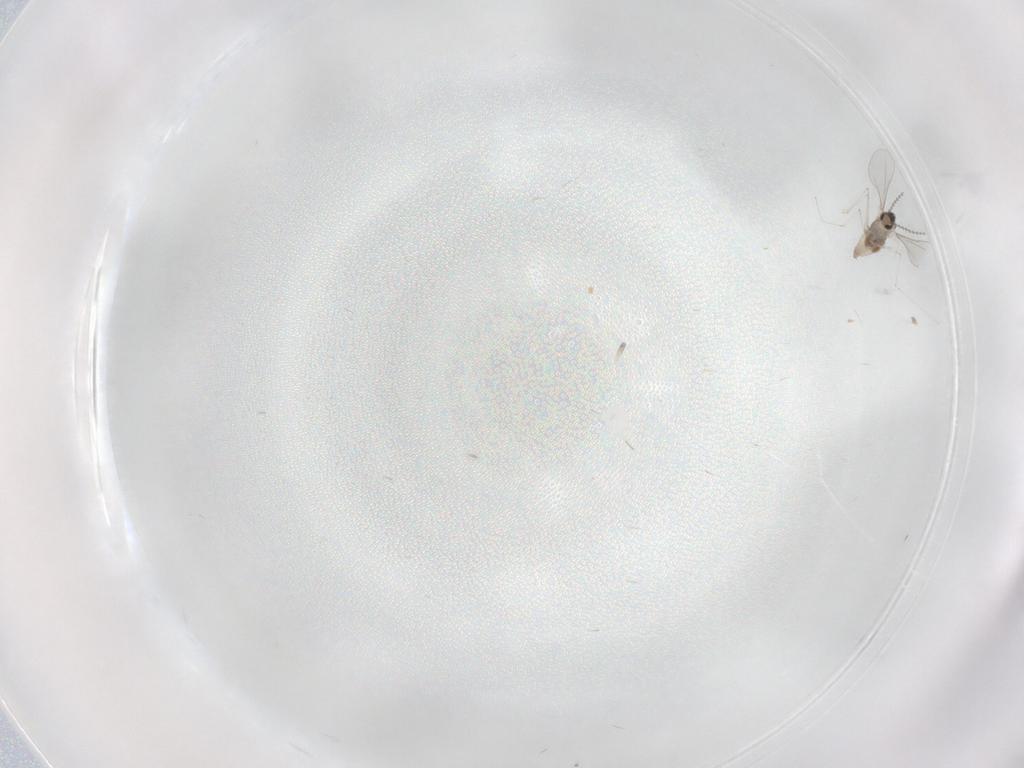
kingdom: Animalia
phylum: Arthropoda
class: Insecta
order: Diptera
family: Cecidomyiidae
